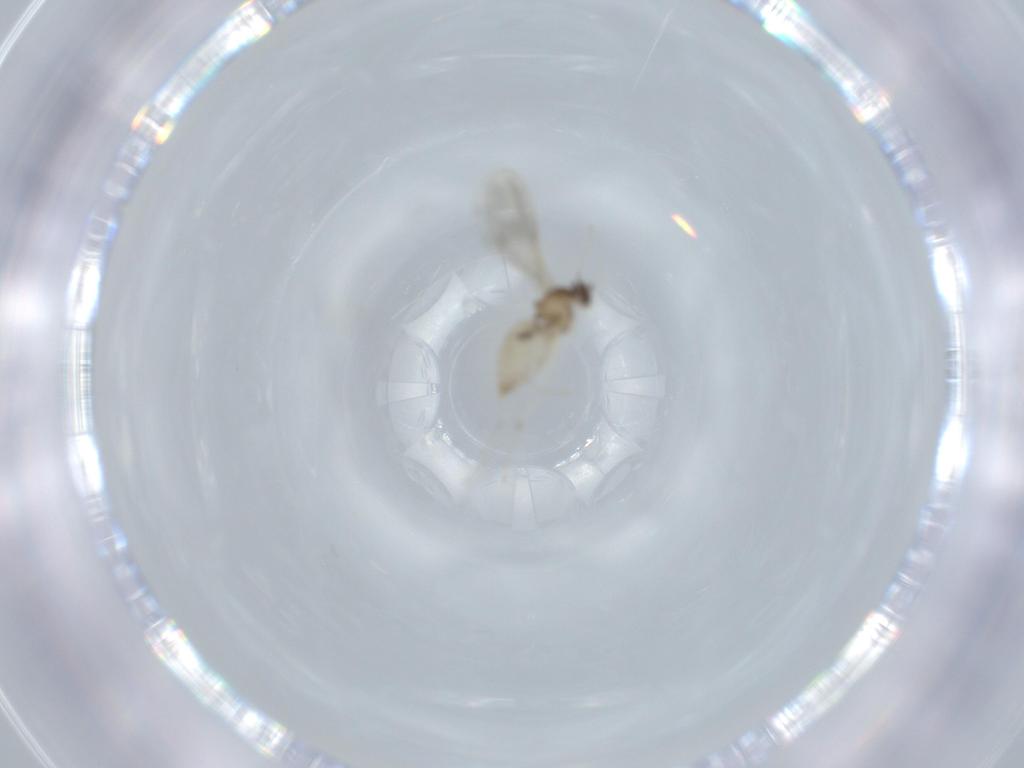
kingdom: Animalia
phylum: Arthropoda
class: Insecta
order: Diptera
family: Cecidomyiidae
